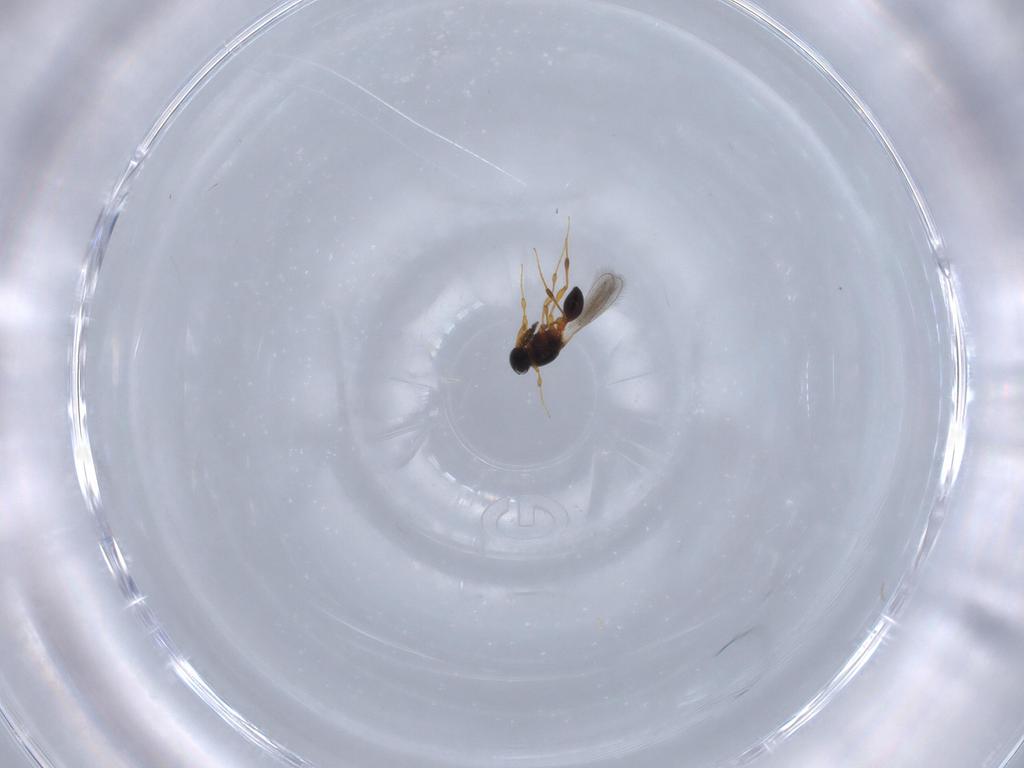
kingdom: Animalia
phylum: Arthropoda
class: Insecta
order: Hymenoptera
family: Platygastridae
